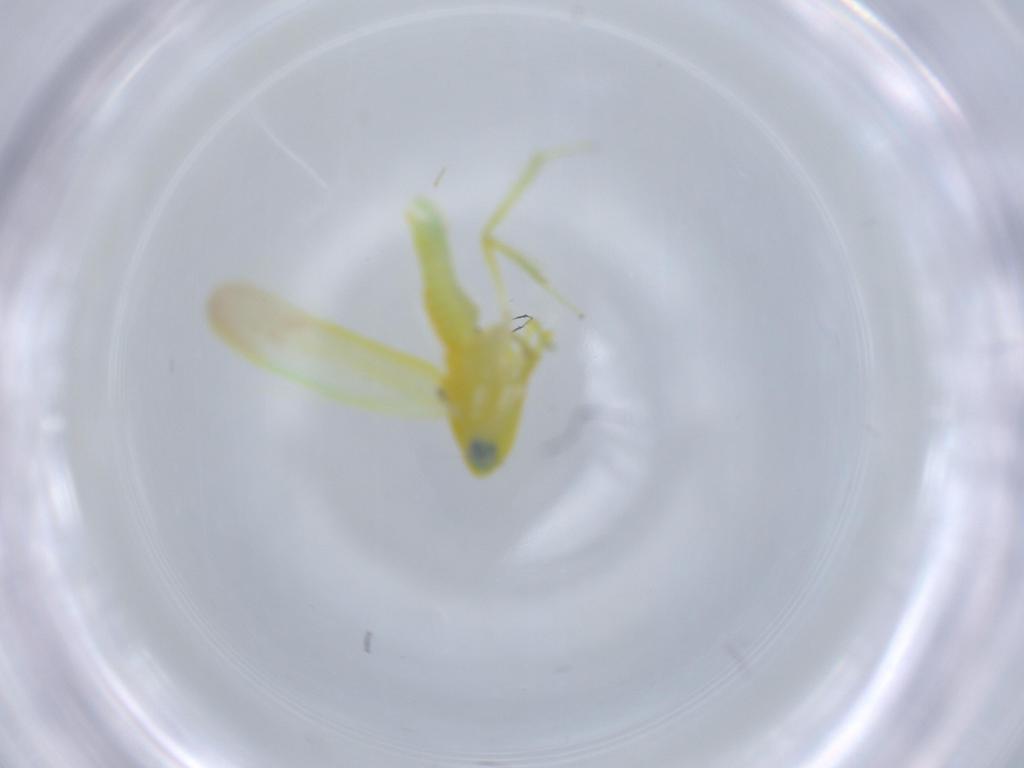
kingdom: Animalia
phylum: Arthropoda
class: Insecta
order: Hemiptera
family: Cicadellidae
